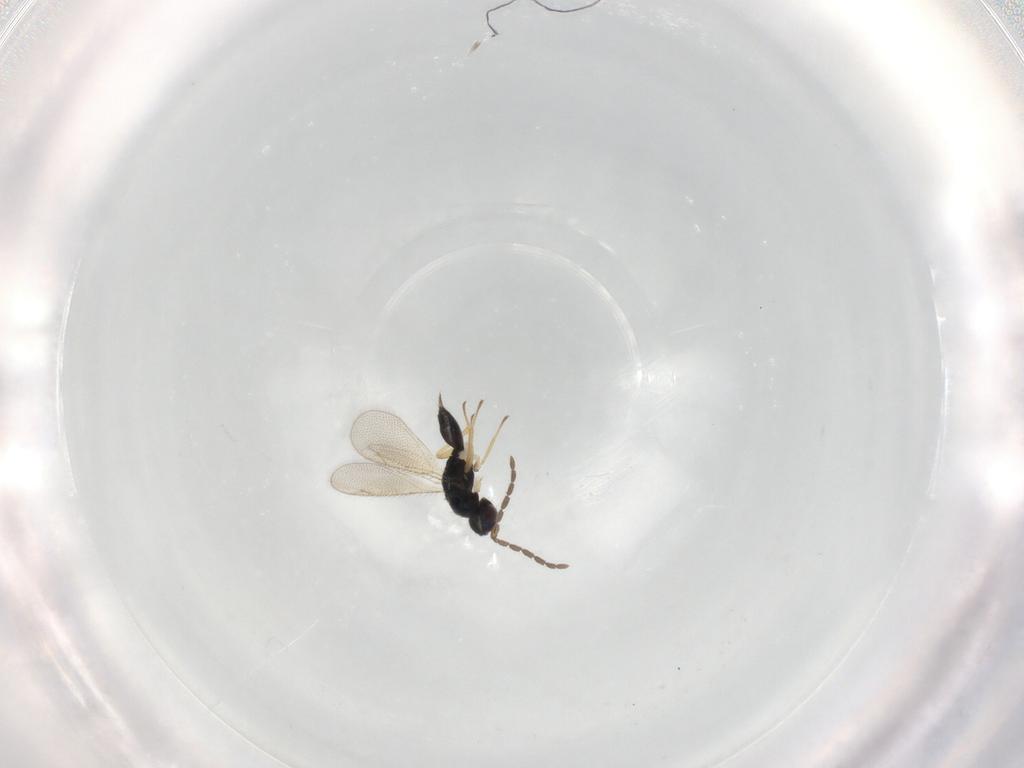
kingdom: Animalia
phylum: Arthropoda
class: Insecta
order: Hymenoptera
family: Eulophidae
